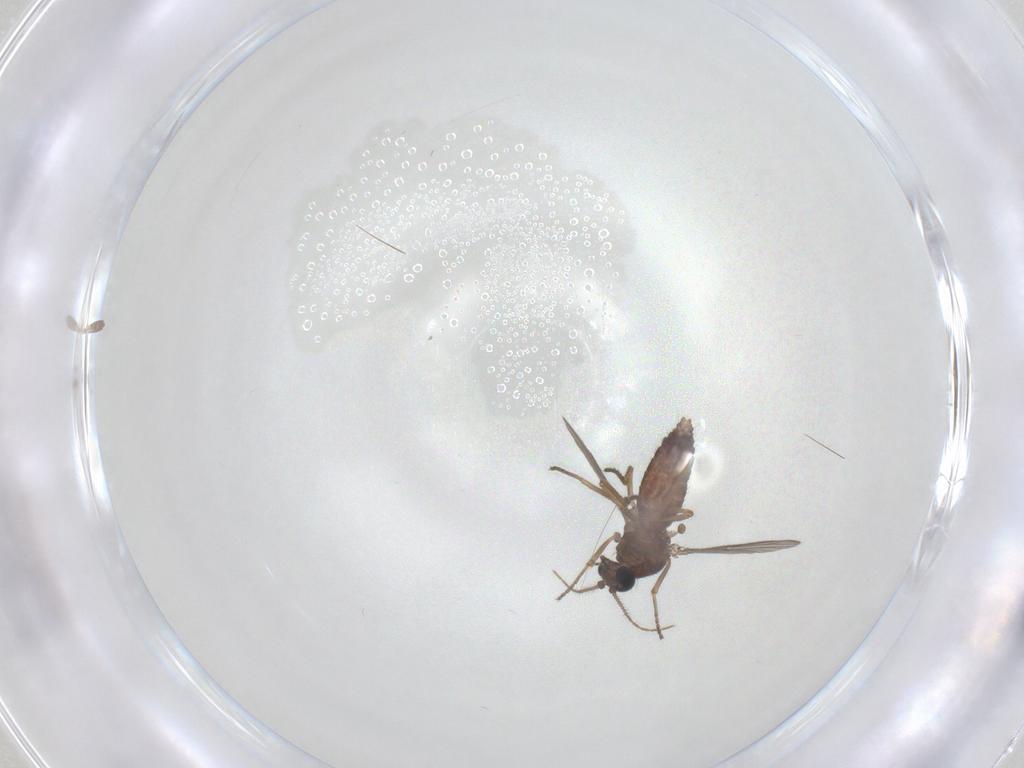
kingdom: Animalia
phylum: Arthropoda
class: Insecta
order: Diptera
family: Ceratopogonidae
